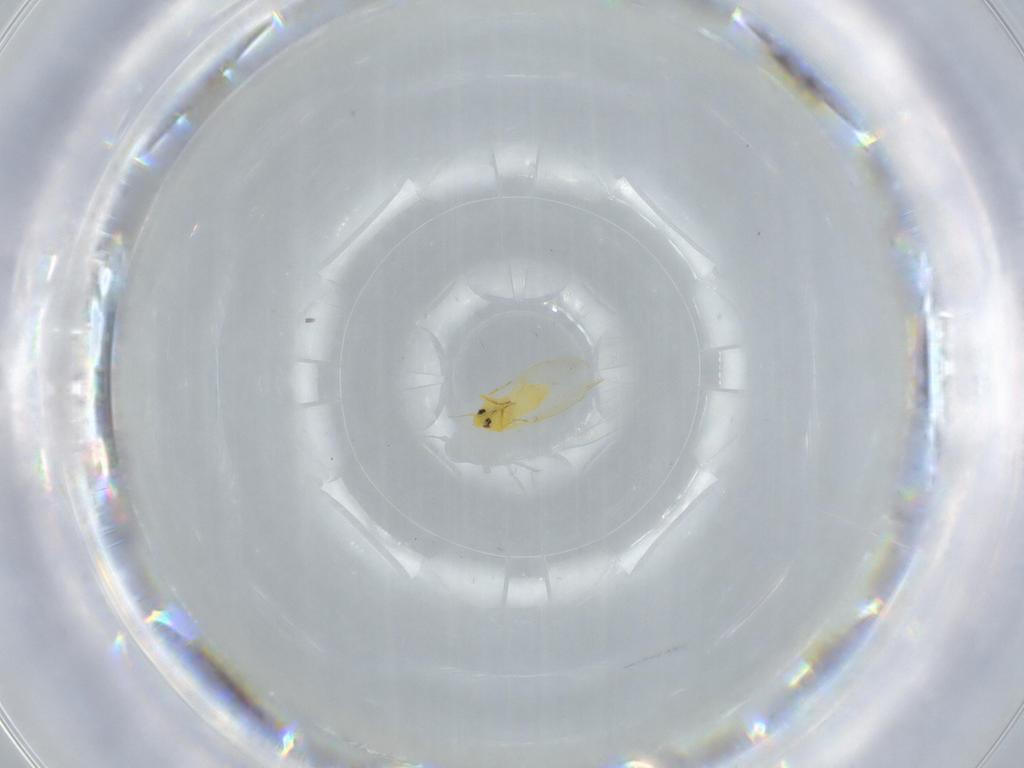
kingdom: Animalia
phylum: Arthropoda
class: Insecta
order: Hemiptera
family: Aleyrodidae
